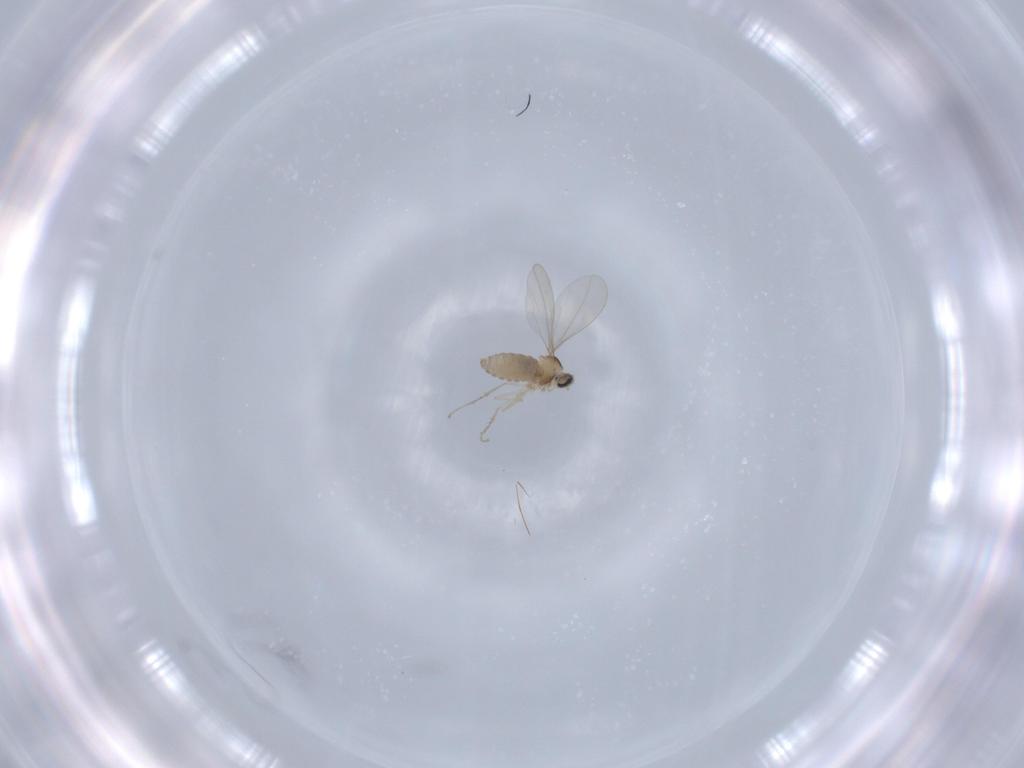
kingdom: Animalia
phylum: Arthropoda
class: Insecta
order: Diptera
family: Cecidomyiidae
